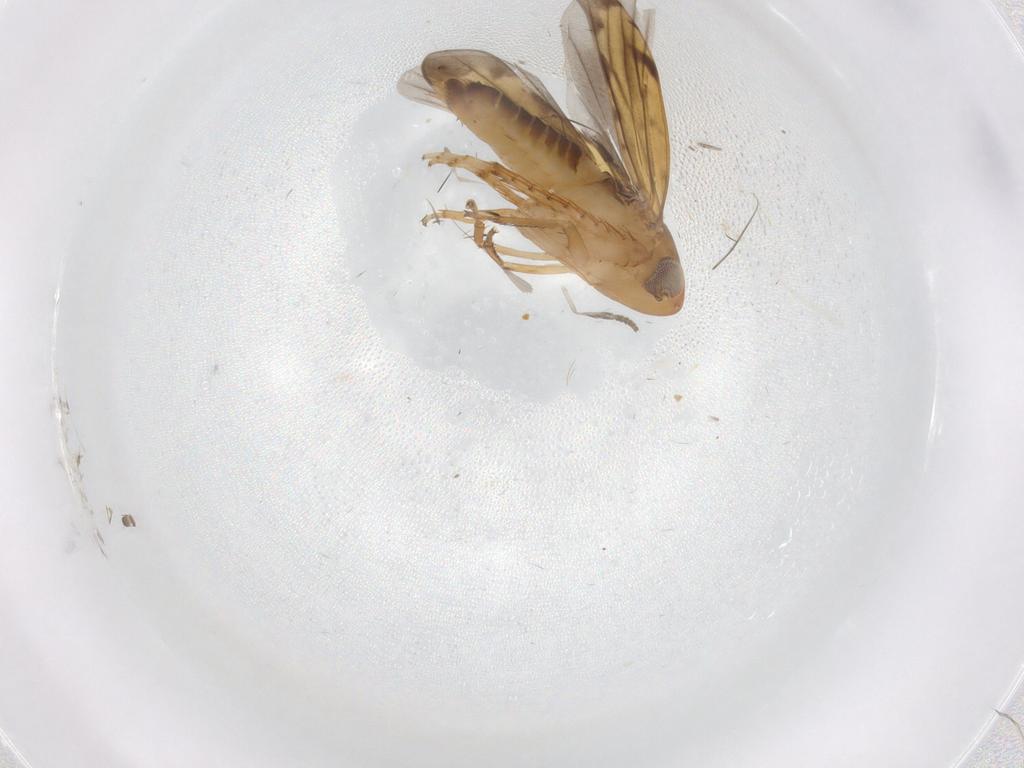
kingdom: Animalia
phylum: Arthropoda
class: Insecta
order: Hemiptera
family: Cicadellidae
